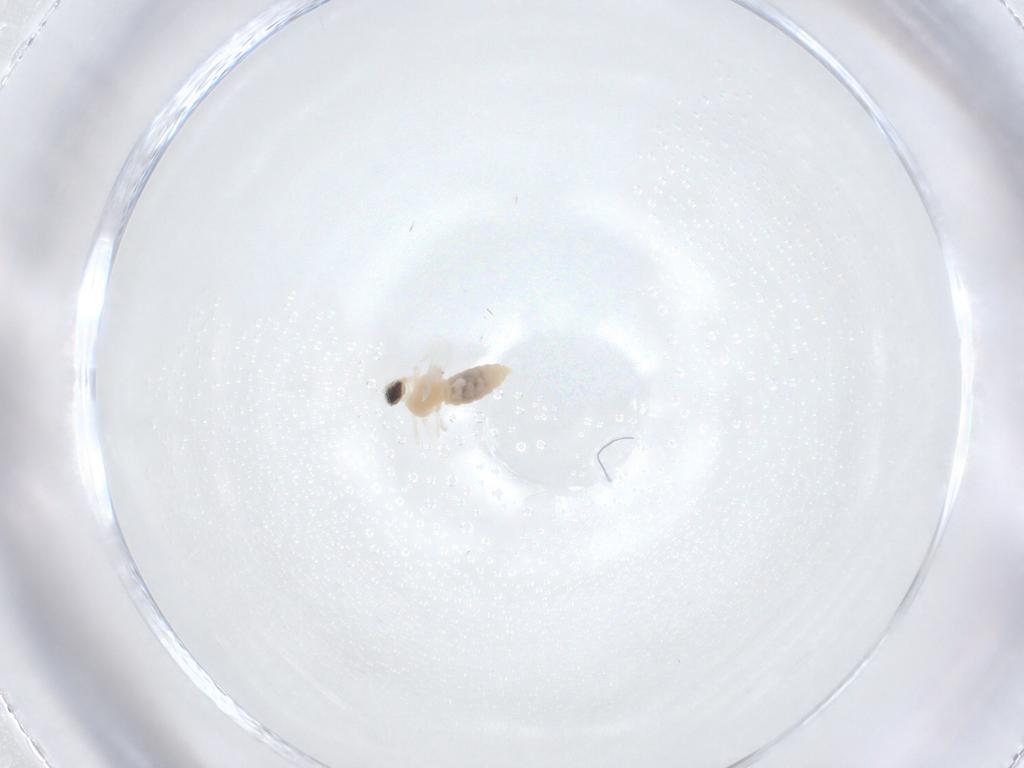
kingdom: Animalia
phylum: Arthropoda
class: Insecta
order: Diptera
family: Cecidomyiidae
